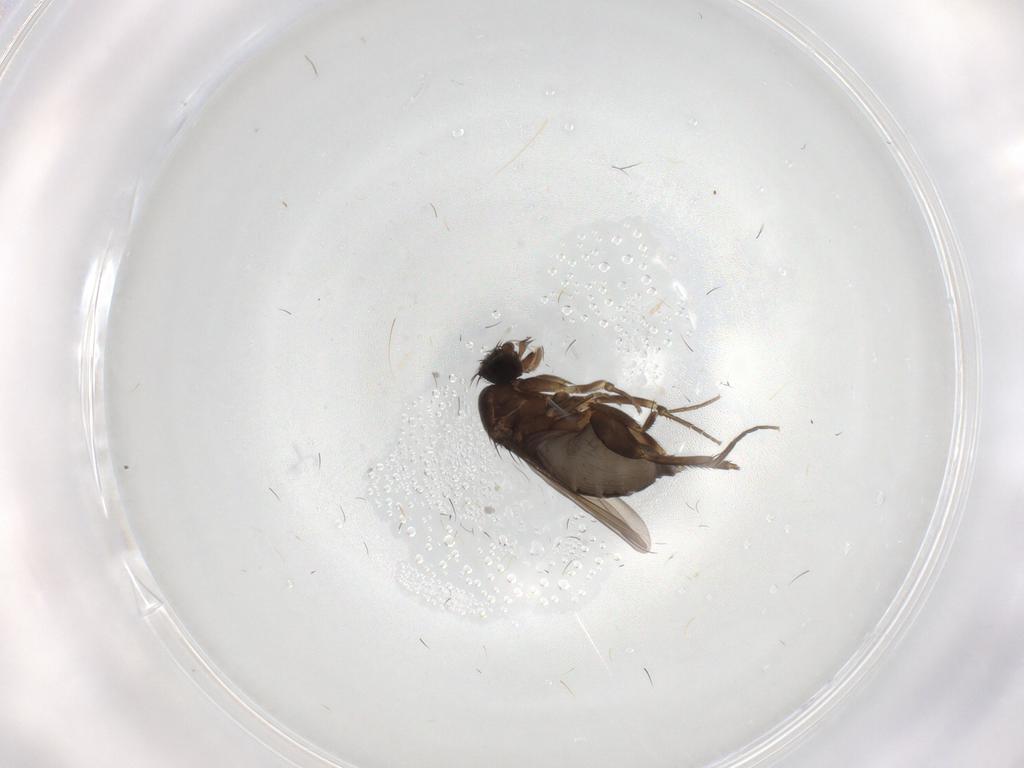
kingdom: Animalia
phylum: Arthropoda
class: Insecta
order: Diptera
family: Phoridae
